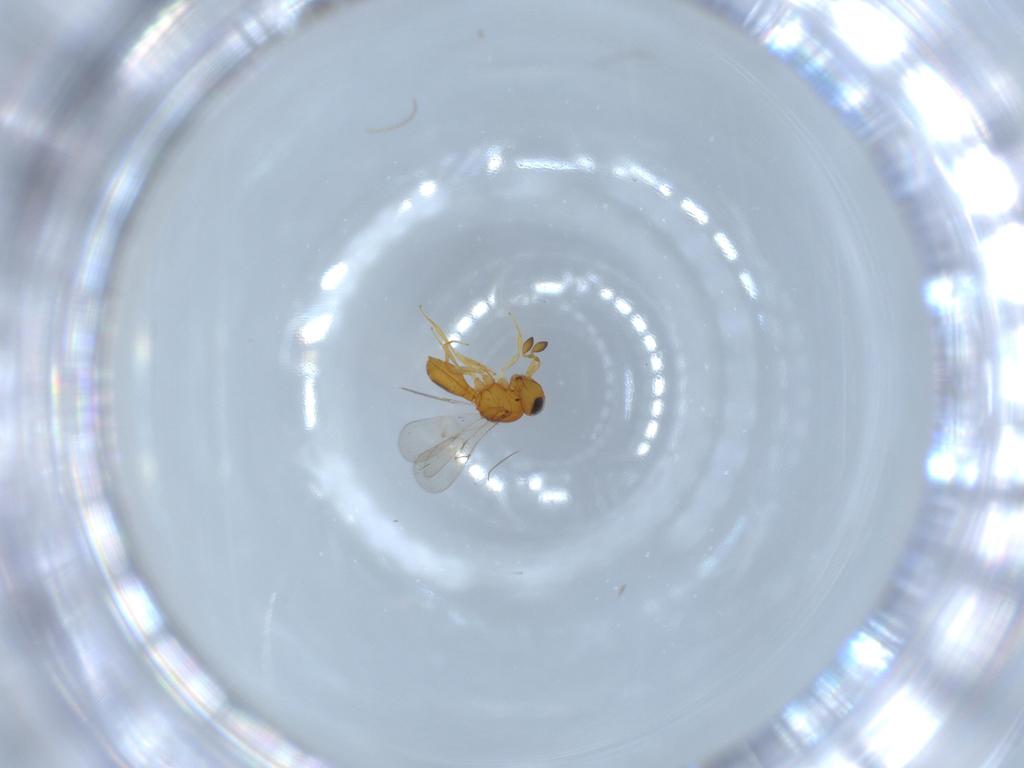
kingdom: Animalia
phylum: Arthropoda
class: Insecta
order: Hymenoptera
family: Scelionidae
